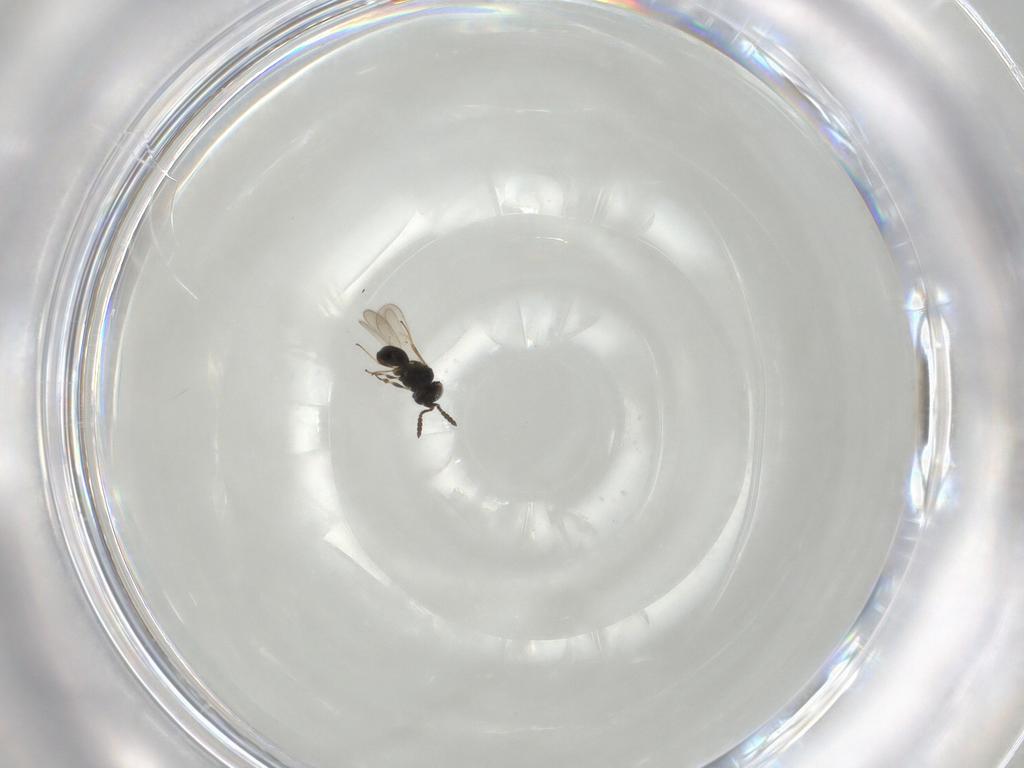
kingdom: Animalia
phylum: Arthropoda
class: Insecta
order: Hymenoptera
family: Scelionidae
